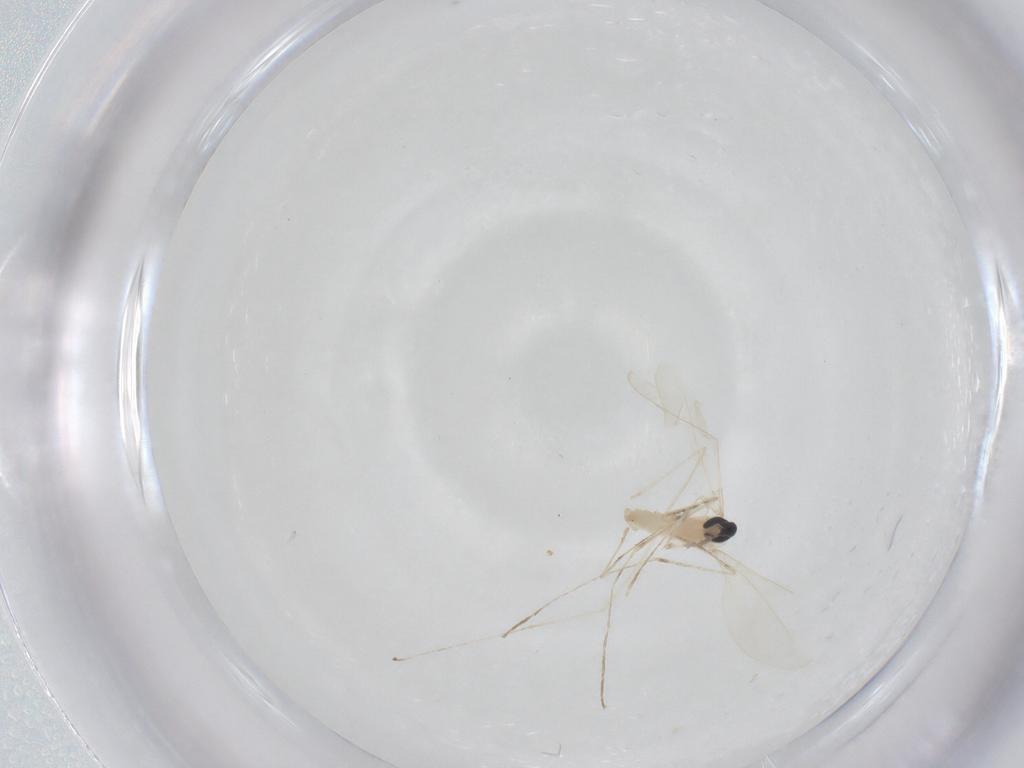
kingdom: Animalia
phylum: Arthropoda
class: Insecta
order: Diptera
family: Cecidomyiidae
